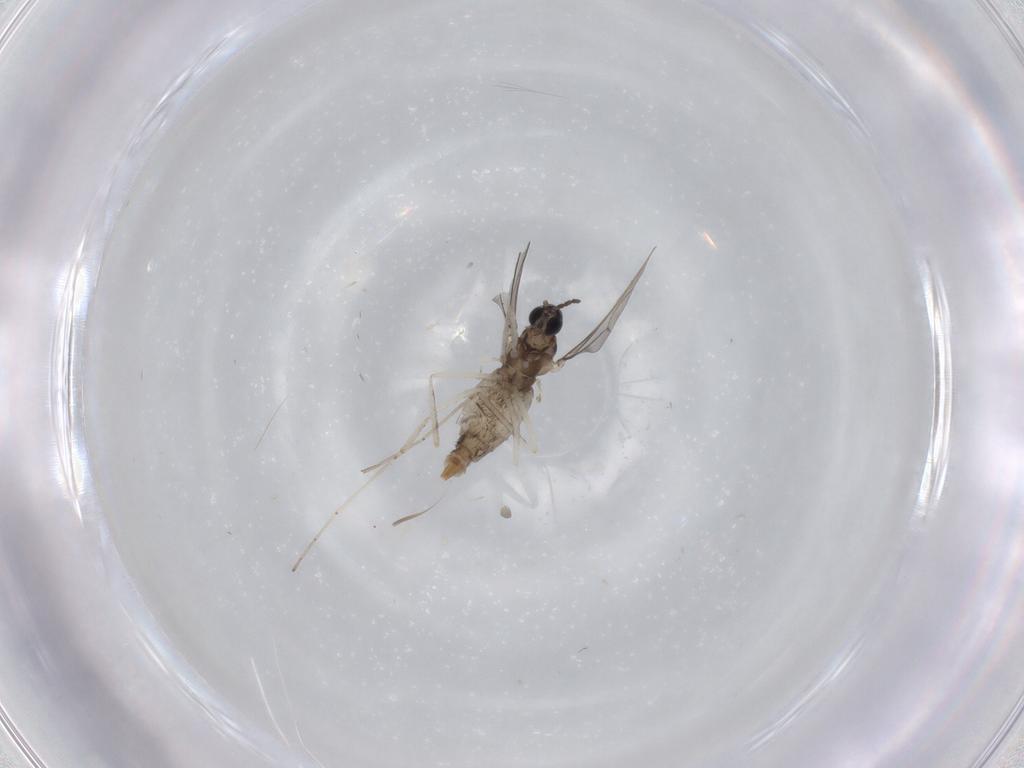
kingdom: Animalia
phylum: Arthropoda
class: Insecta
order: Diptera
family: Cecidomyiidae
